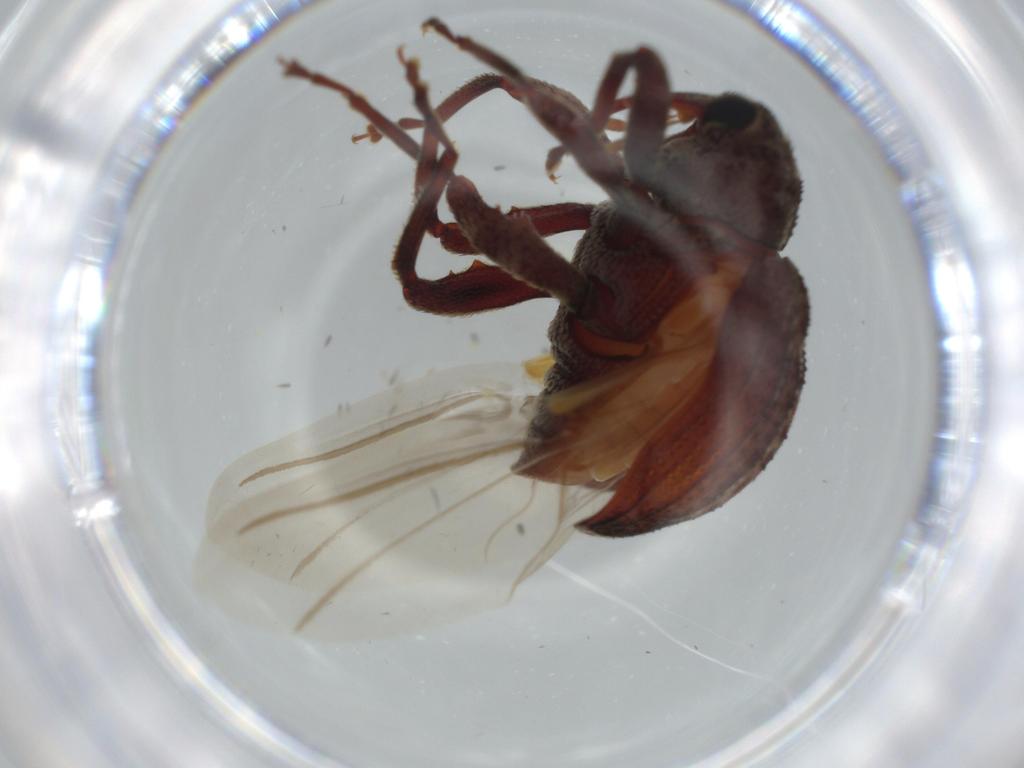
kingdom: Animalia
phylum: Arthropoda
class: Insecta
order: Coleoptera
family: Curculionidae
